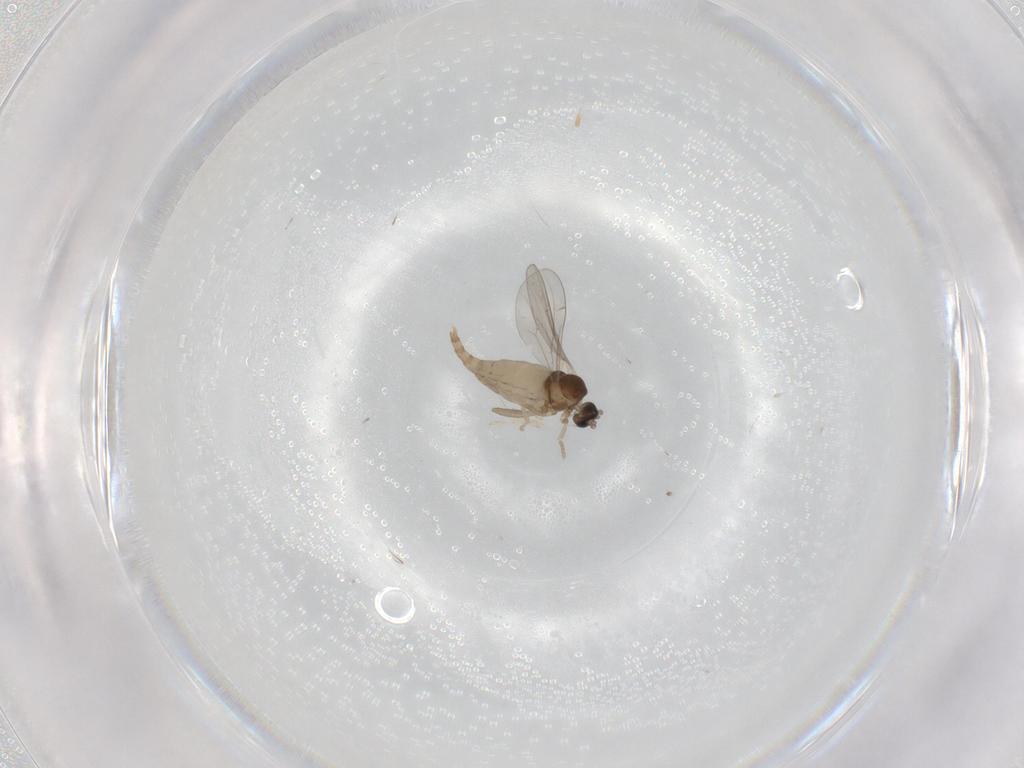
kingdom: Animalia
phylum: Arthropoda
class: Insecta
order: Diptera
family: Cecidomyiidae
